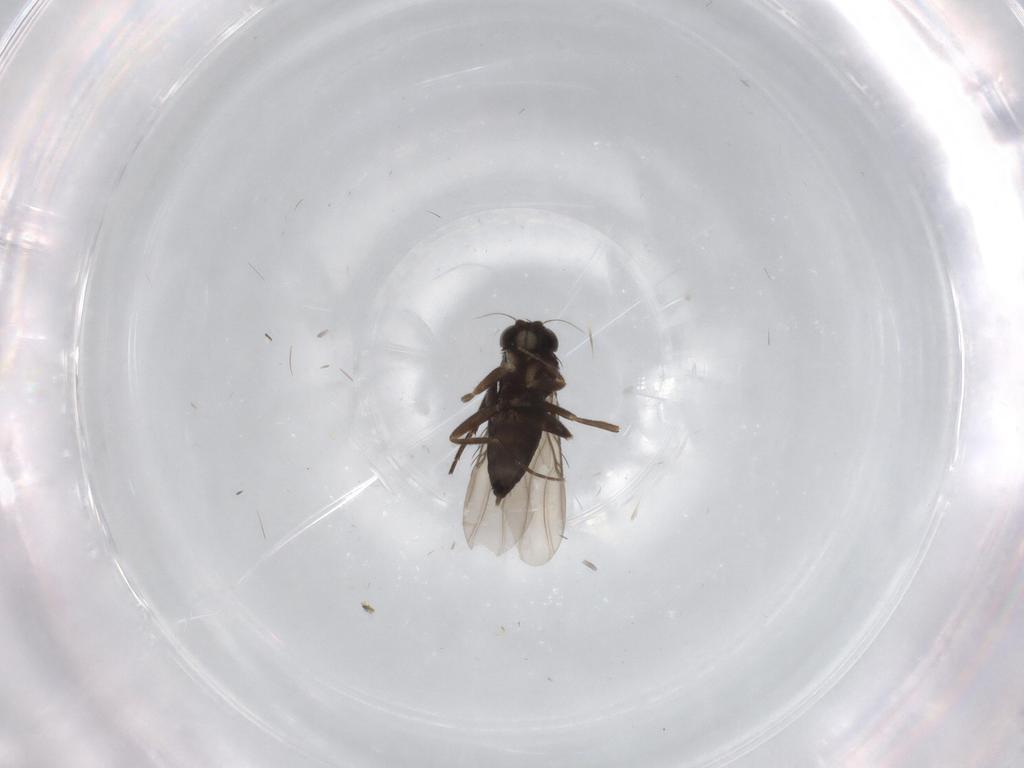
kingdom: Animalia
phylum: Arthropoda
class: Insecta
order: Diptera
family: Phoridae
